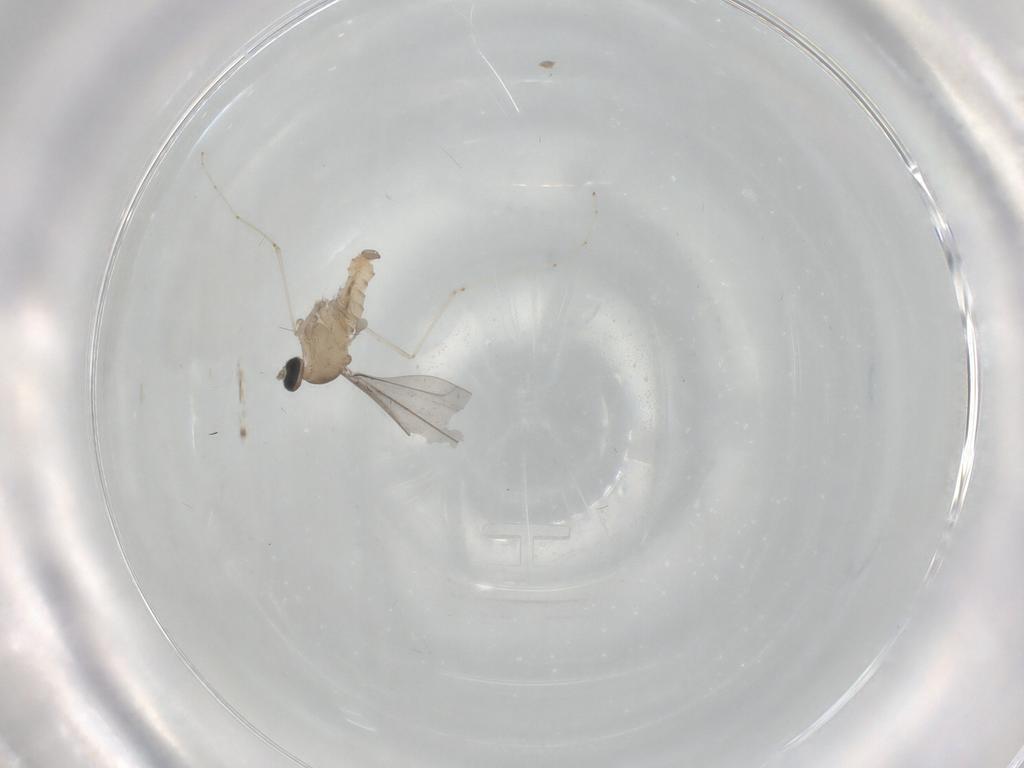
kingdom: Animalia
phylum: Arthropoda
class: Insecta
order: Diptera
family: Cecidomyiidae
